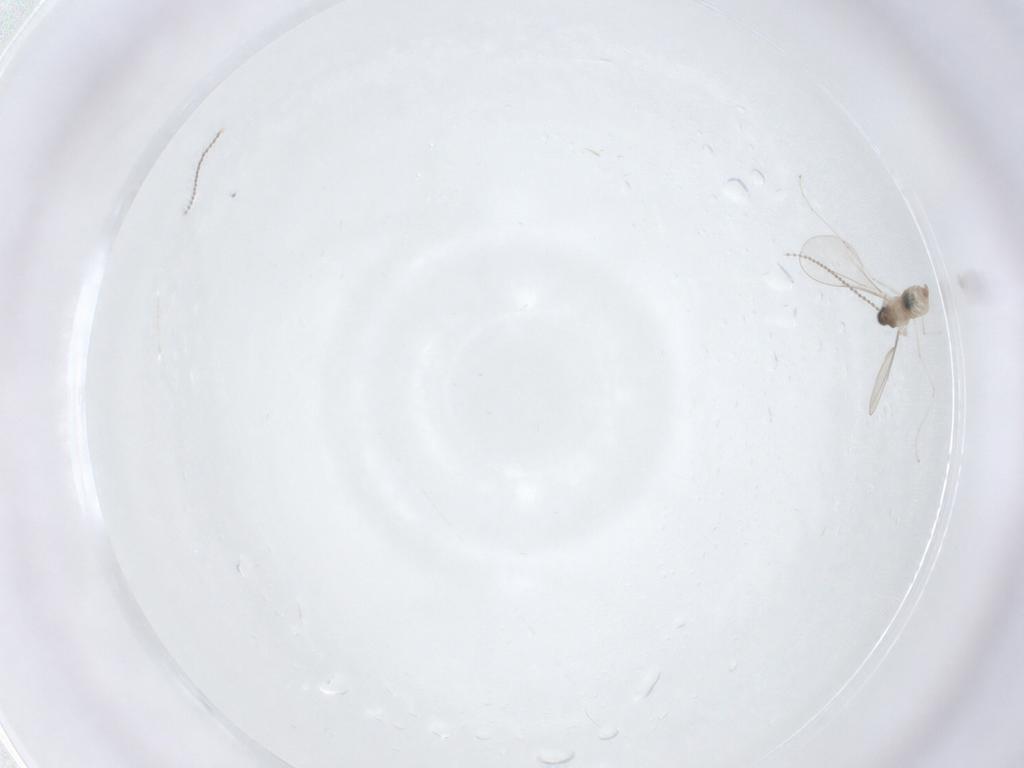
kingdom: Animalia
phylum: Arthropoda
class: Insecta
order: Diptera
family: Cecidomyiidae
